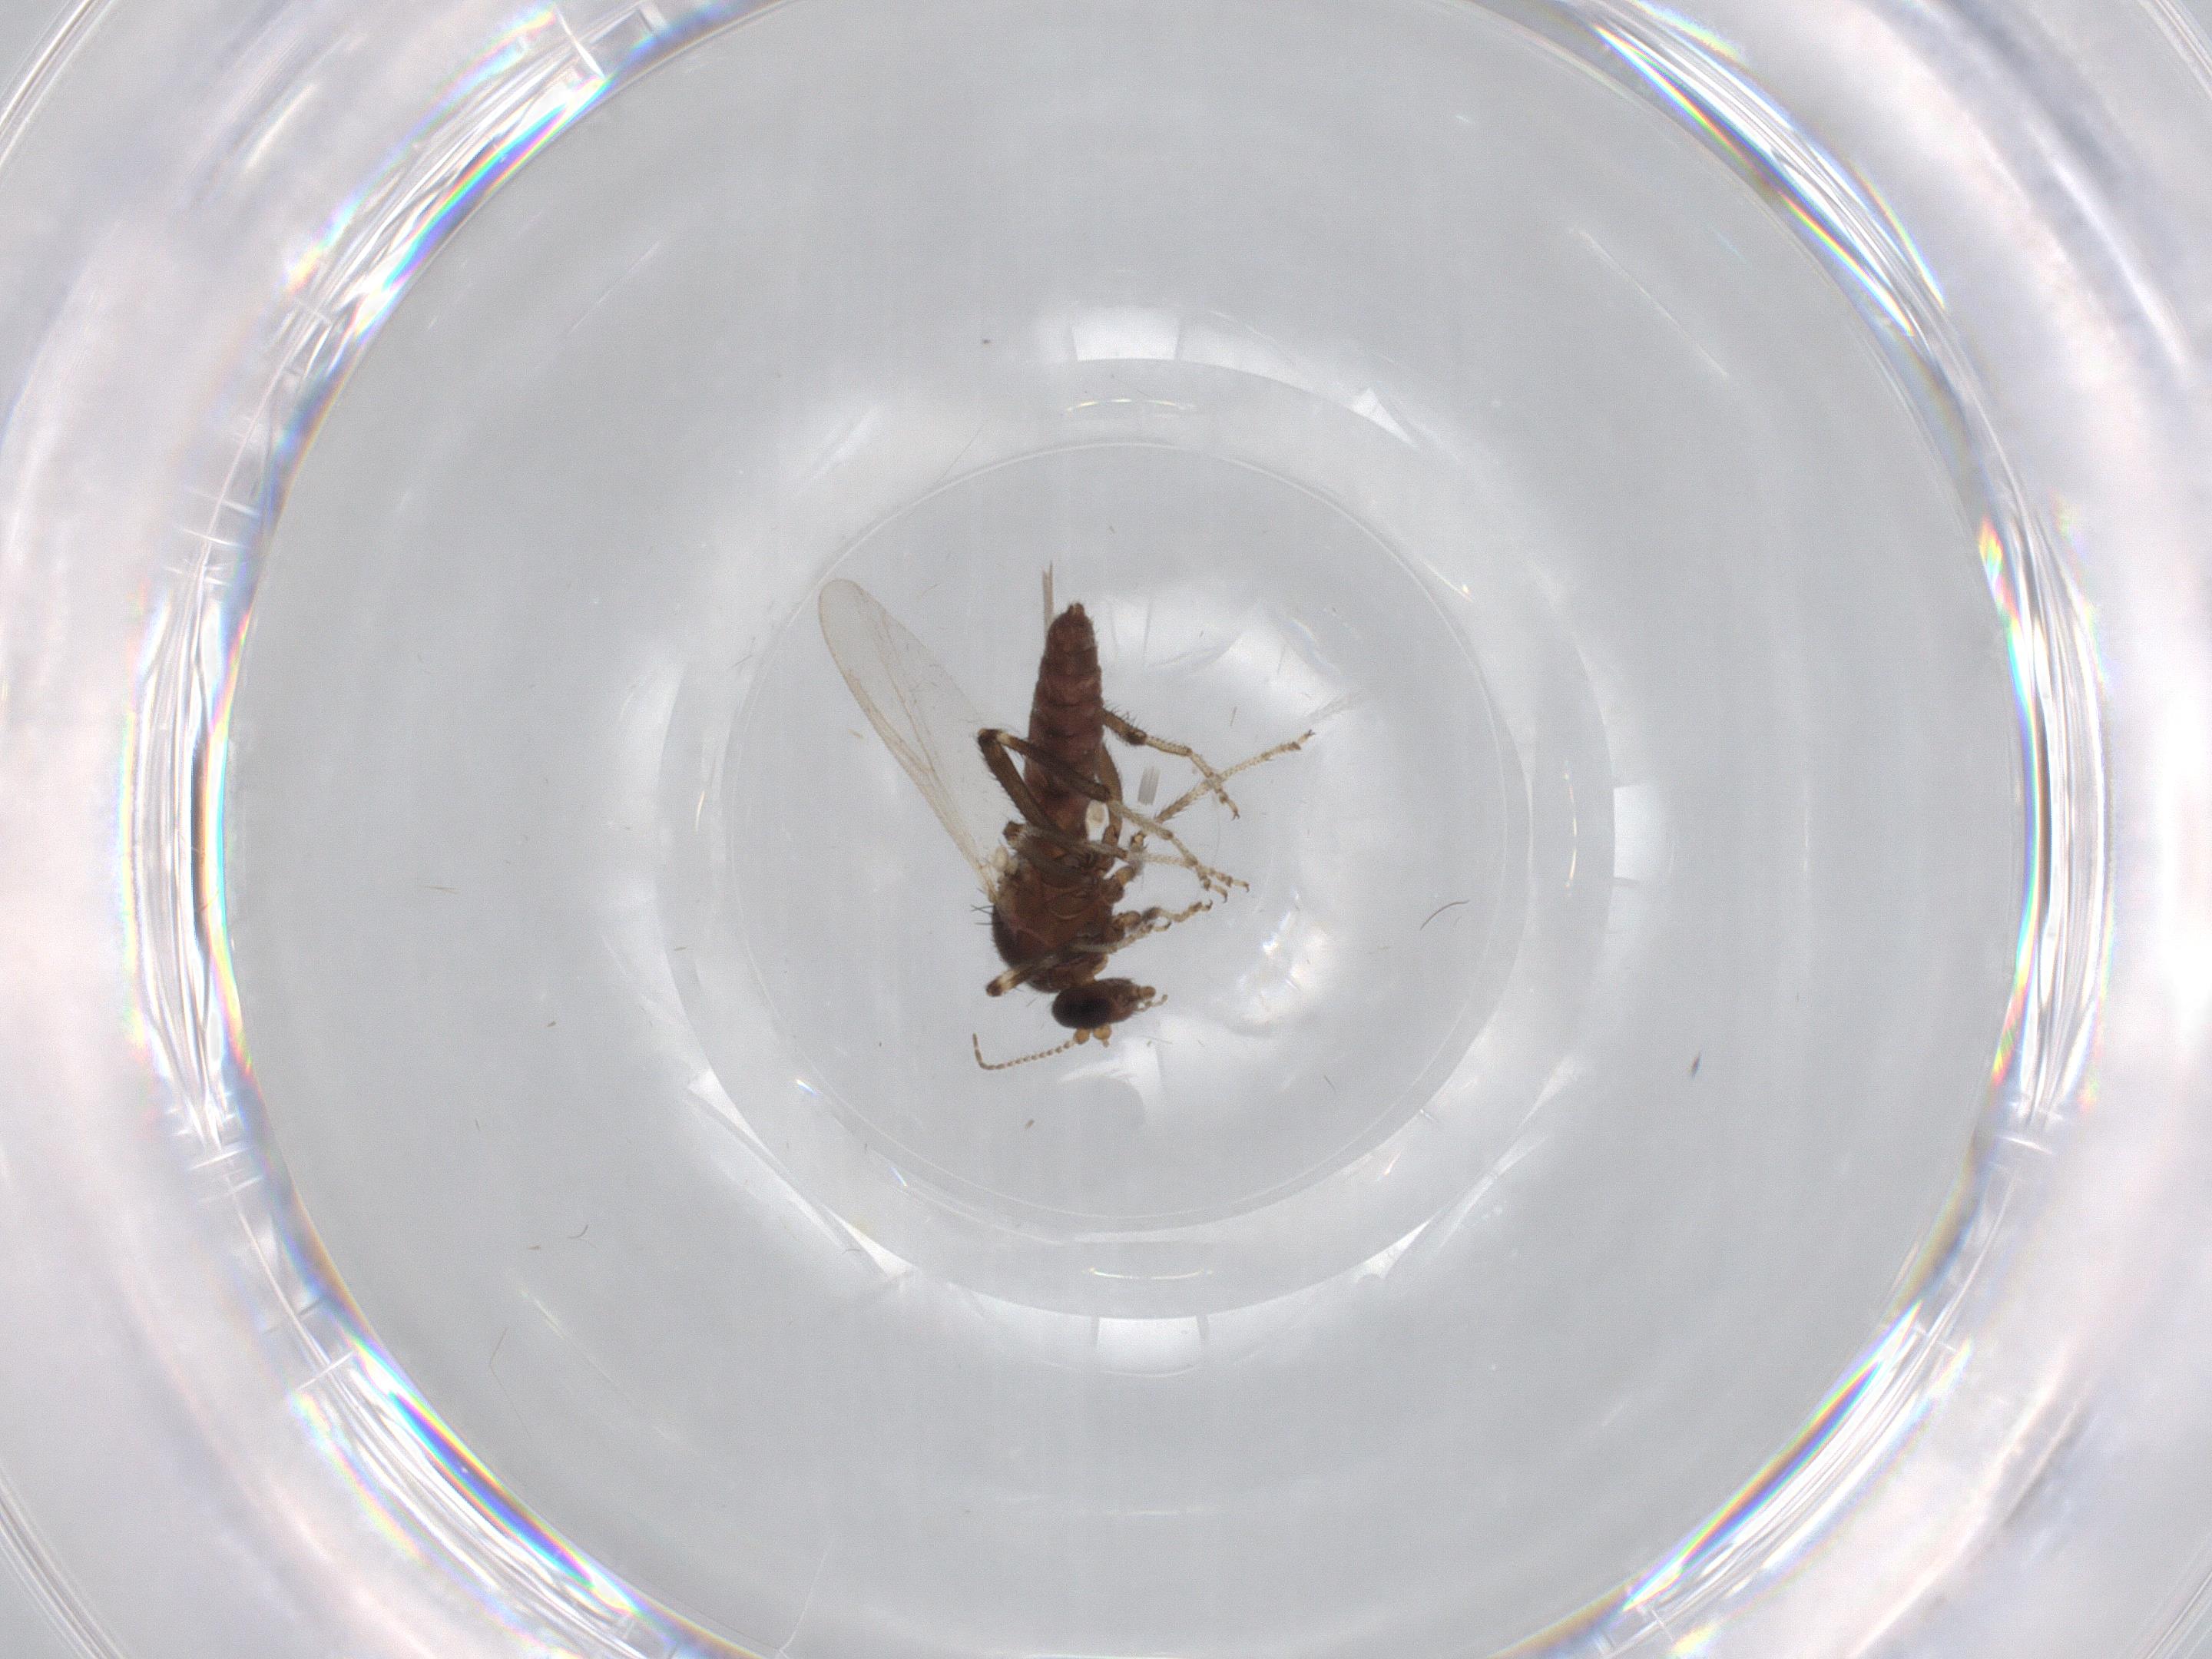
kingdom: Animalia
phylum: Arthropoda
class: Insecta
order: Diptera
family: Ceratopogonidae
